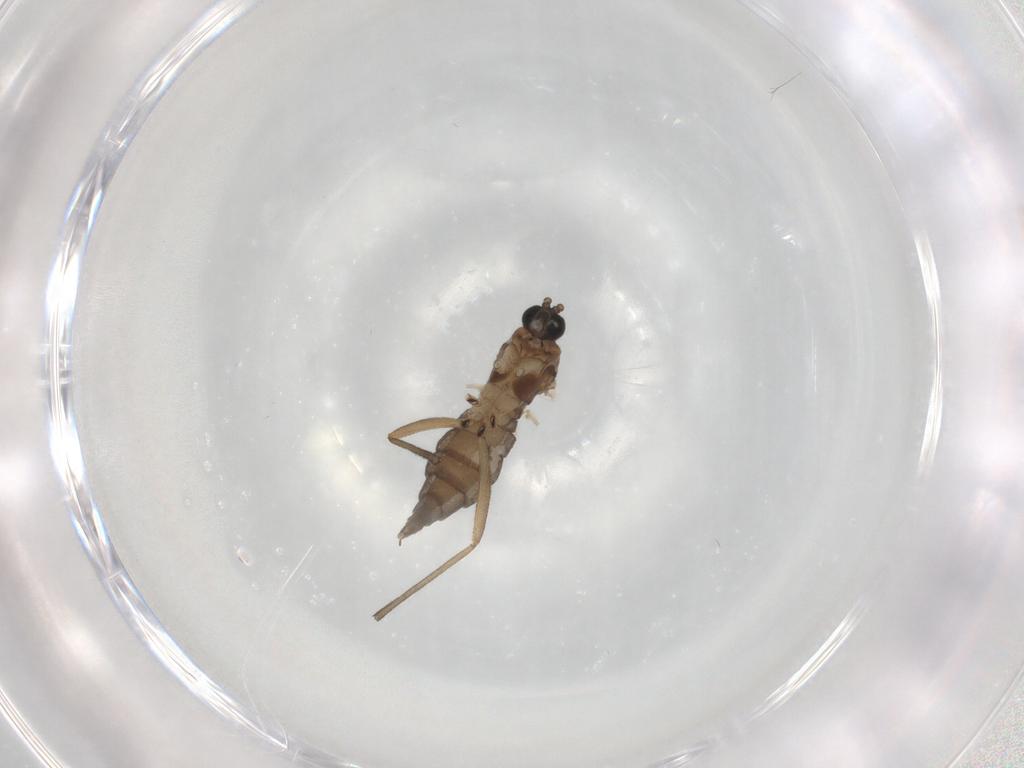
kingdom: Animalia
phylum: Arthropoda
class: Insecta
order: Diptera
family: Sciaridae
